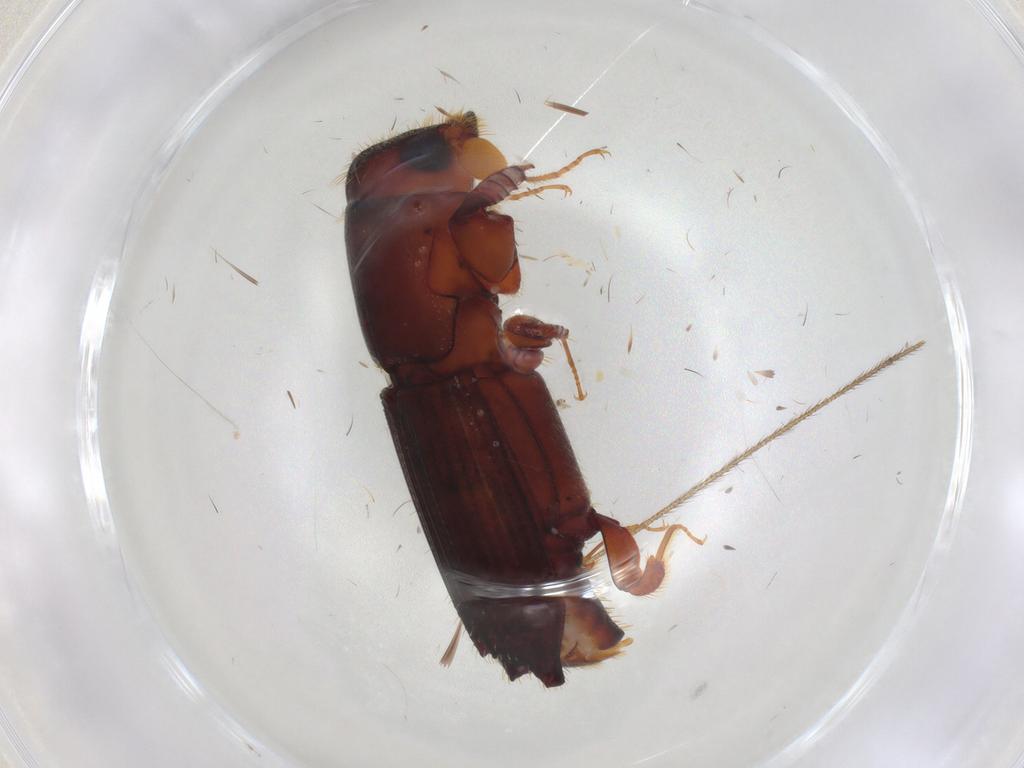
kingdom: Animalia
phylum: Arthropoda
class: Insecta
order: Coleoptera
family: Curculionidae
